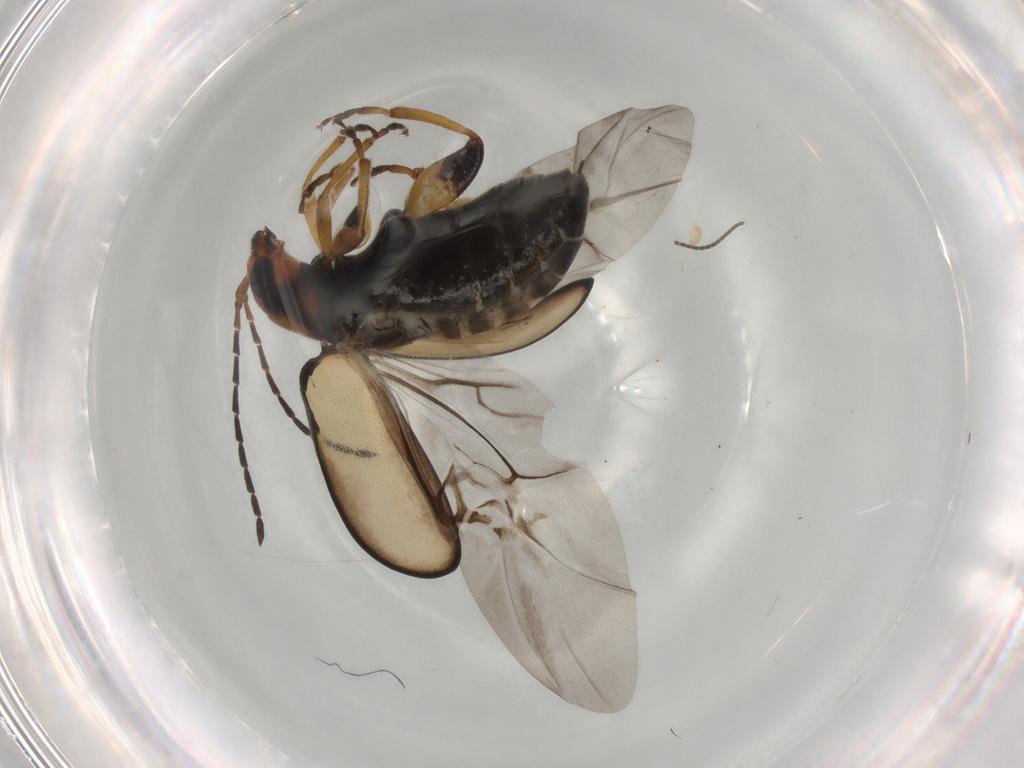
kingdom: Animalia
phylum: Arthropoda
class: Insecta
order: Coleoptera
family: Chrysomelidae
